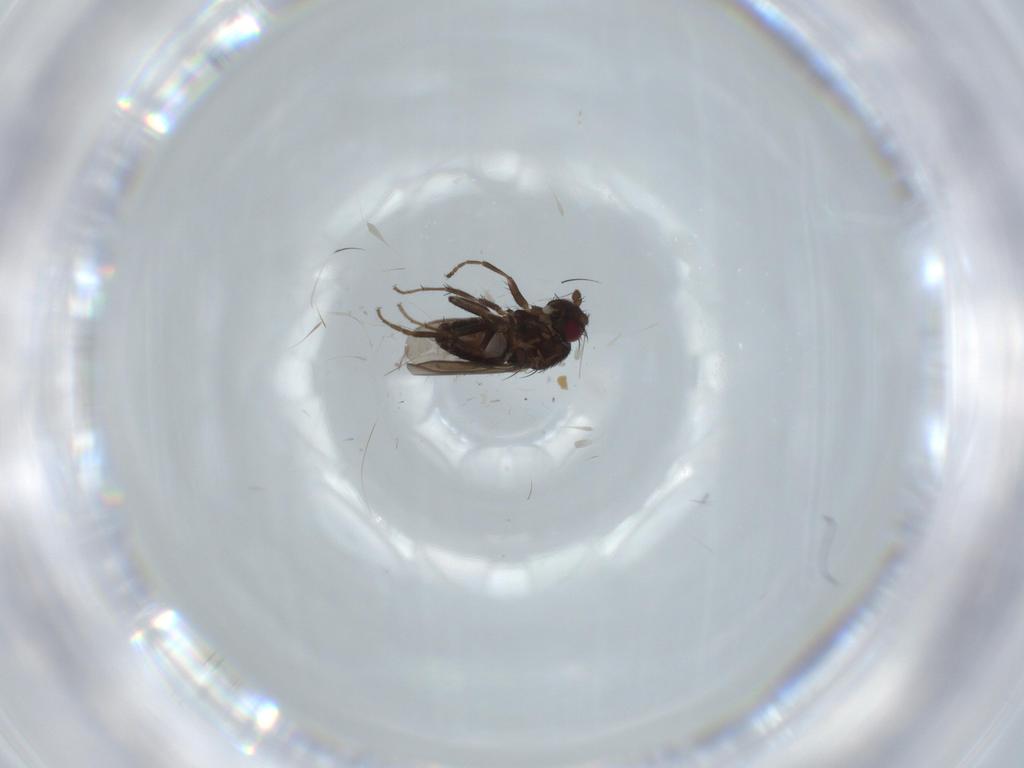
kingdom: Animalia
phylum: Arthropoda
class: Insecta
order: Diptera
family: Sphaeroceridae
